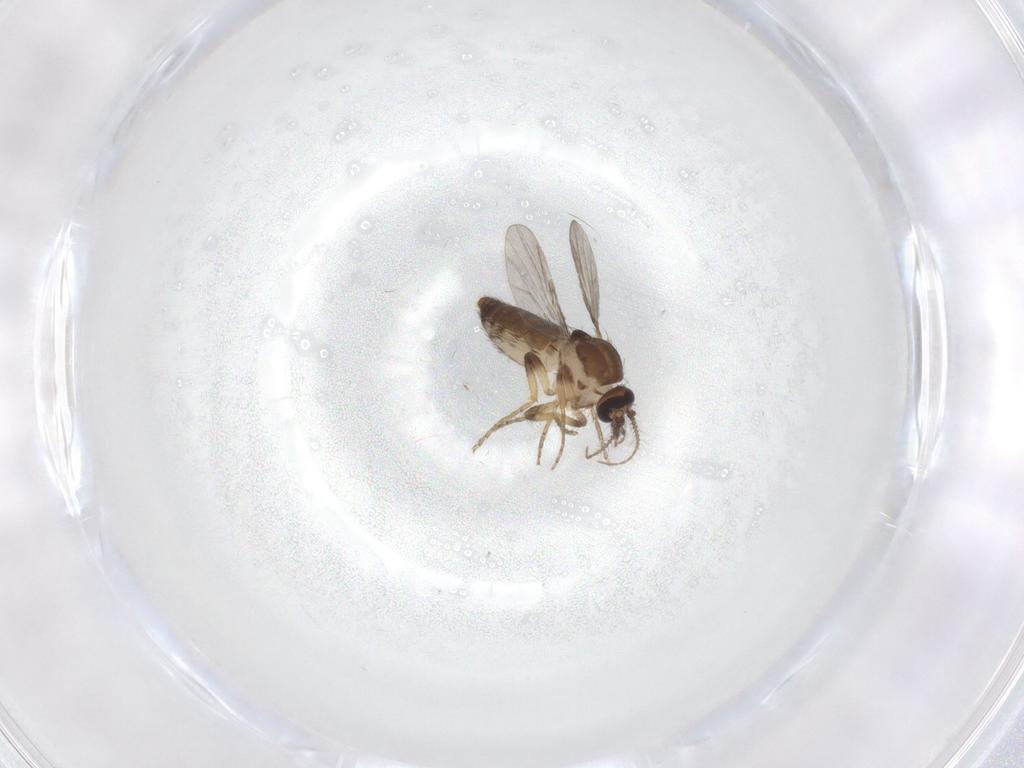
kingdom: Animalia
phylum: Arthropoda
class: Insecta
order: Diptera
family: Ceratopogonidae
